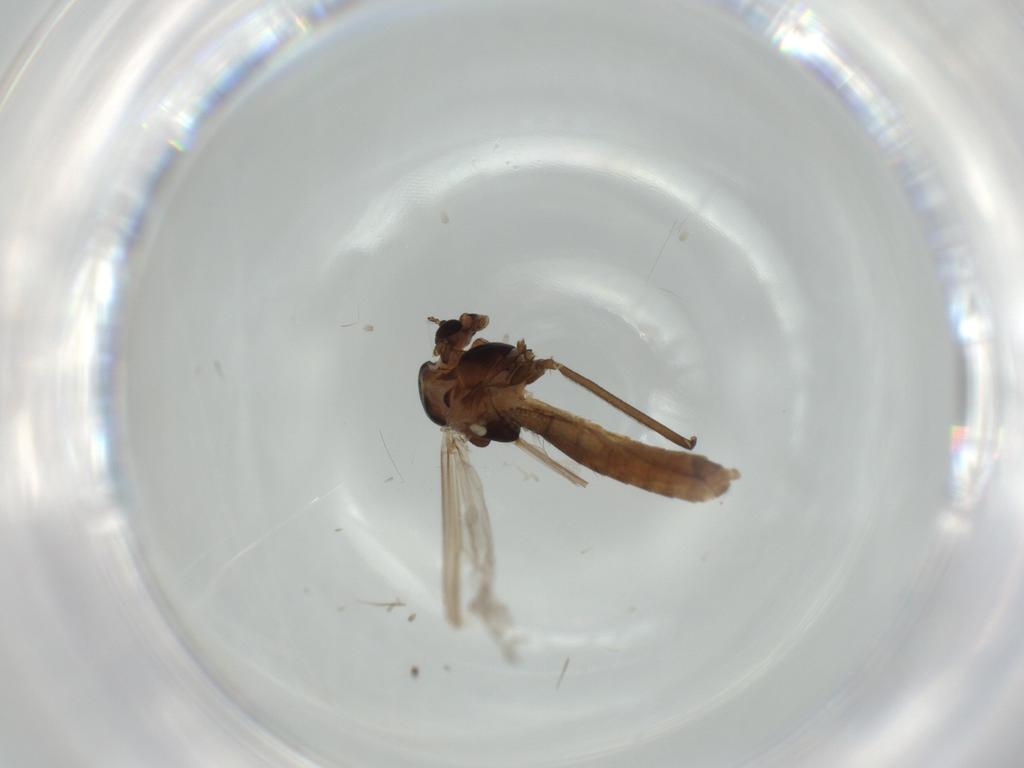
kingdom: Animalia
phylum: Arthropoda
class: Insecta
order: Diptera
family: Chironomidae
